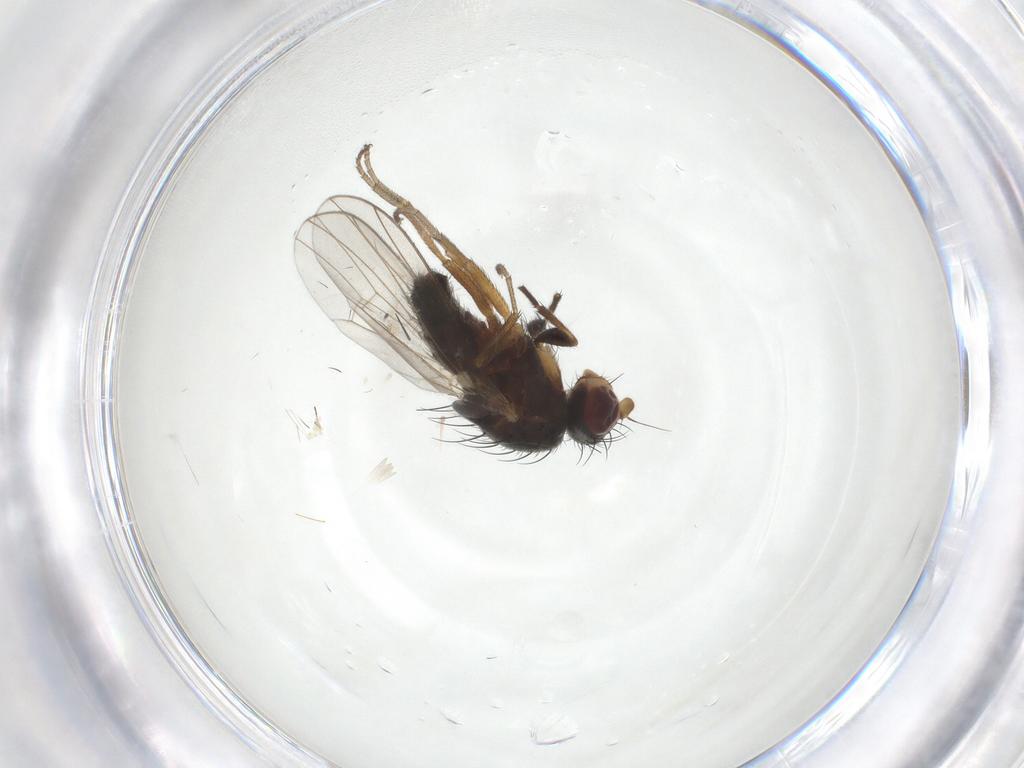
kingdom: Animalia
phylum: Arthropoda
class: Insecta
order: Diptera
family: Heleomyzidae
